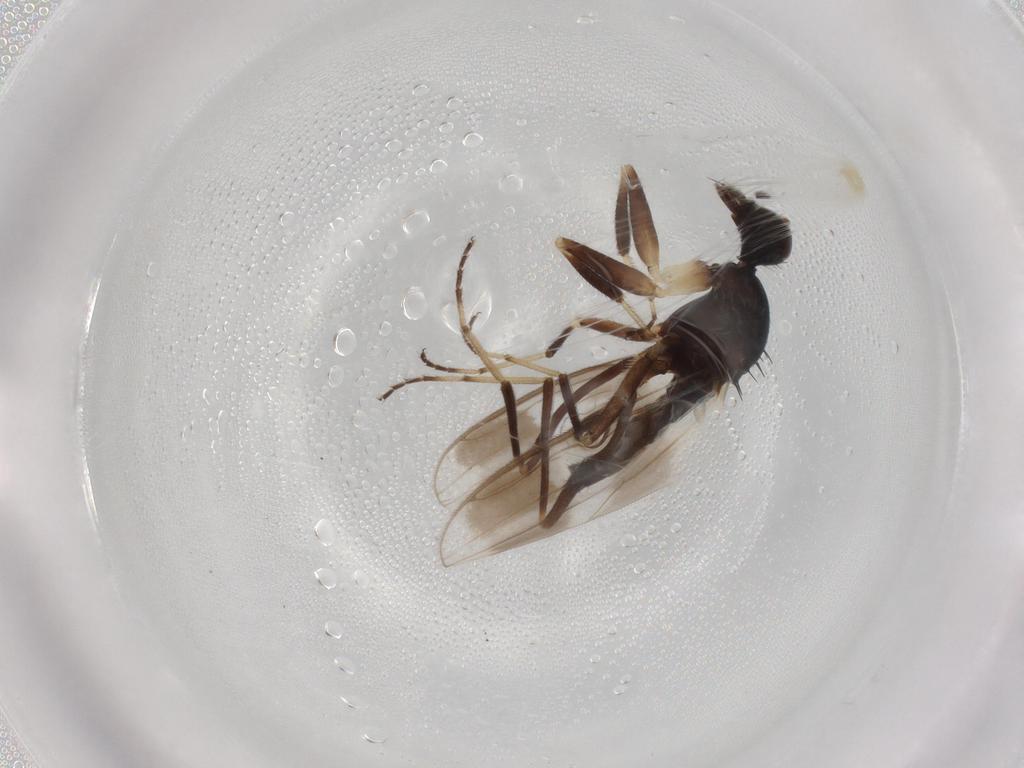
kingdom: Animalia
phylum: Arthropoda
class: Insecta
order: Diptera
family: Hybotidae
